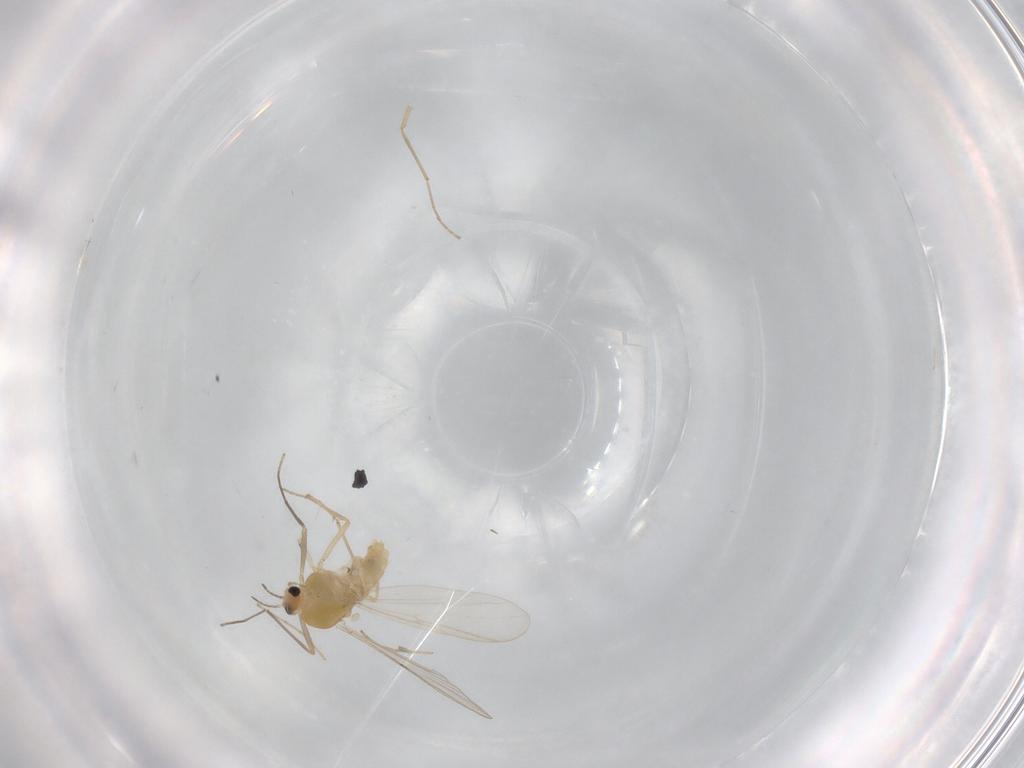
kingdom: Animalia
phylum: Arthropoda
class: Insecta
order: Diptera
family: Chironomidae
